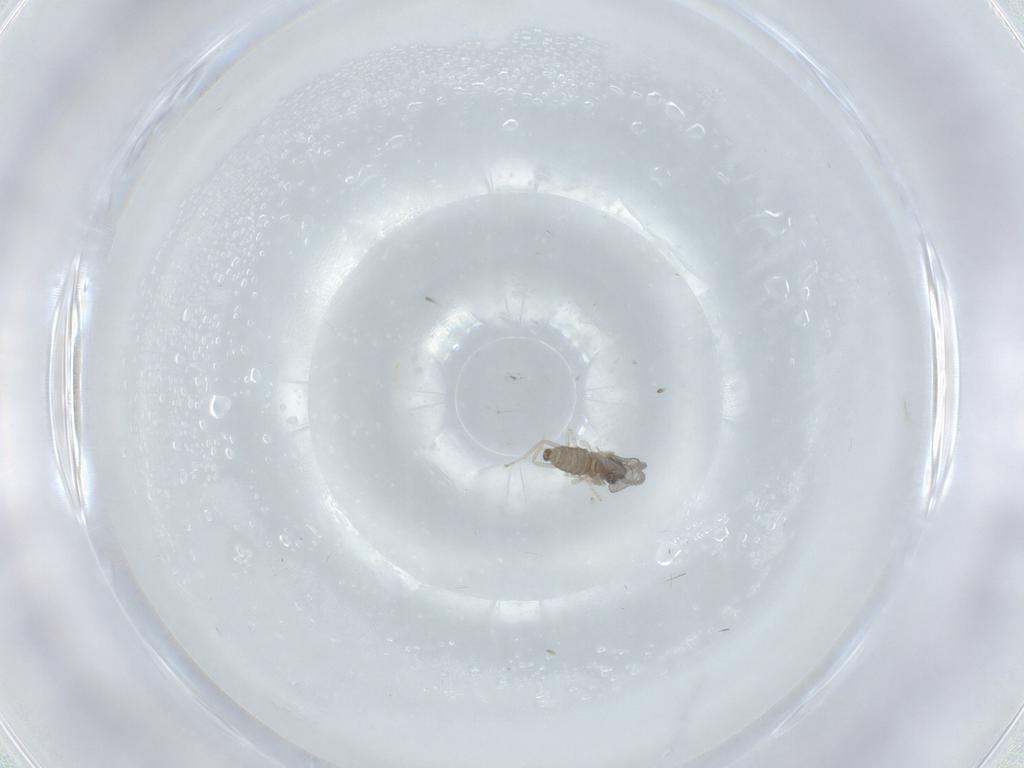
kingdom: Animalia
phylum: Arthropoda
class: Insecta
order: Diptera
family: Cecidomyiidae
